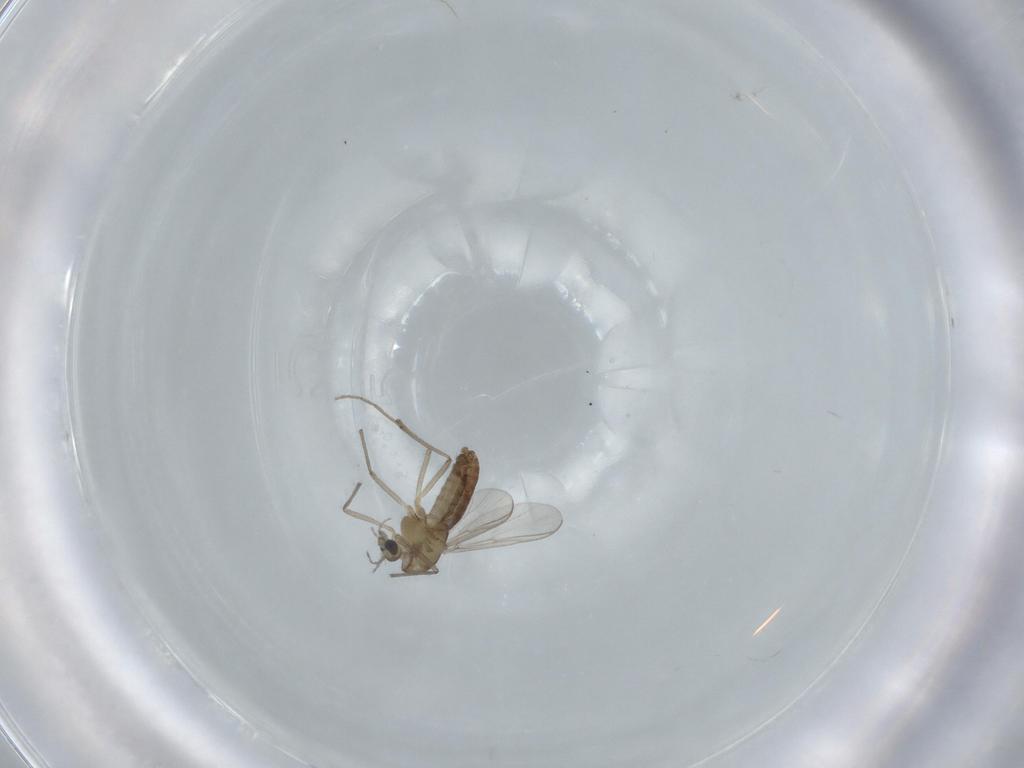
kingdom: Animalia
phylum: Arthropoda
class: Insecta
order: Diptera
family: Chironomidae
